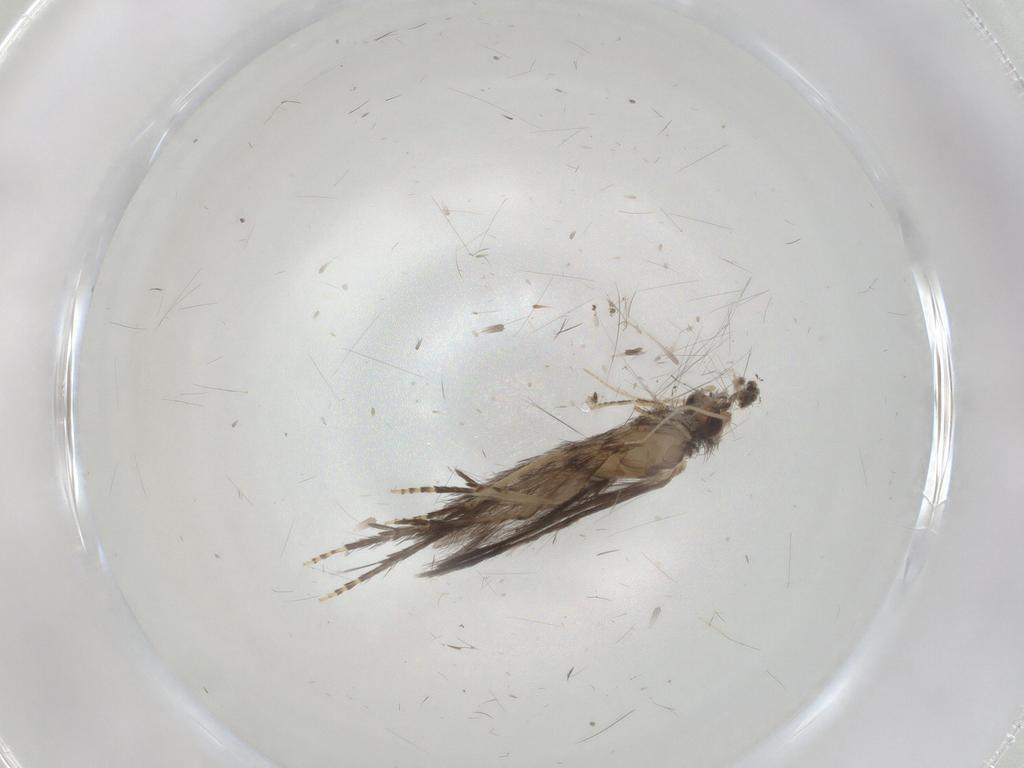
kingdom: Animalia
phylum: Arthropoda
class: Insecta
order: Trichoptera
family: Hydroptilidae
